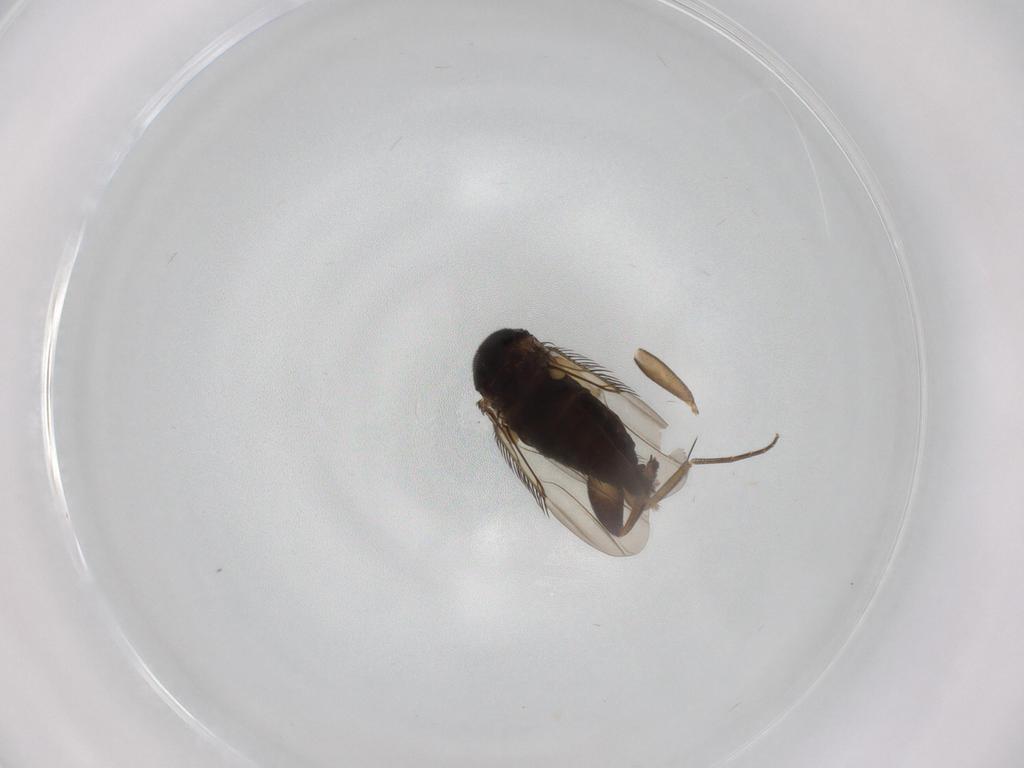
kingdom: Animalia
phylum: Arthropoda
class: Insecta
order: Diptera
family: Phoridae
